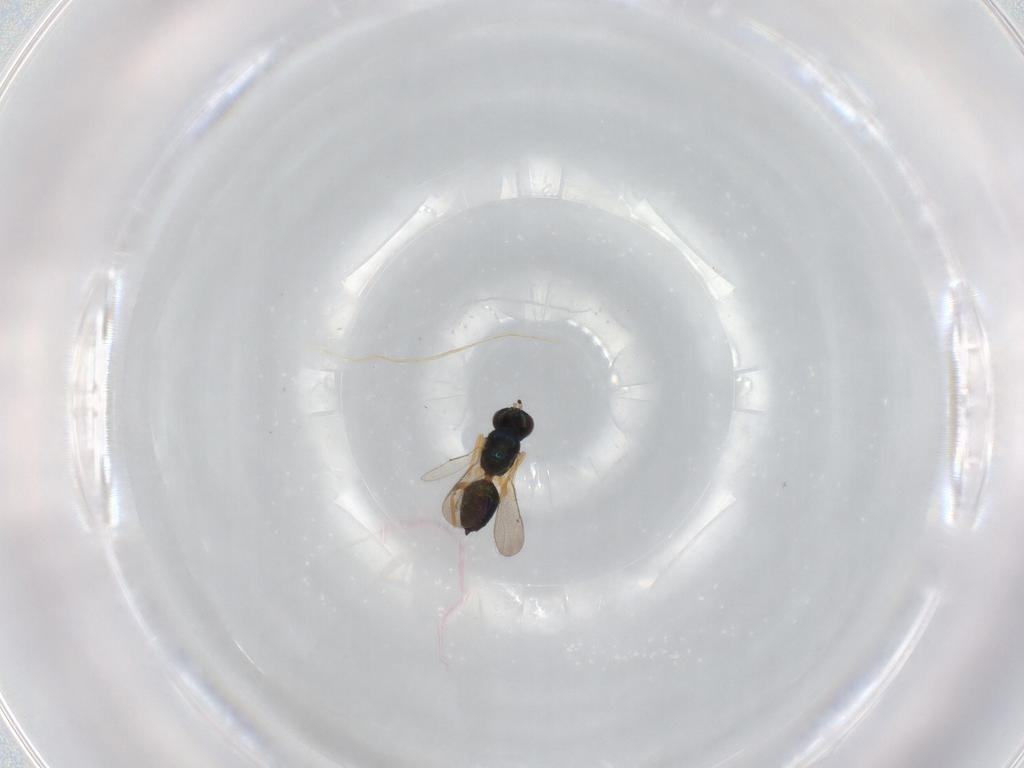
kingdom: Animalia
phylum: Arthropoda
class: Insecta
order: Hymenoptera
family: Eulophidae
